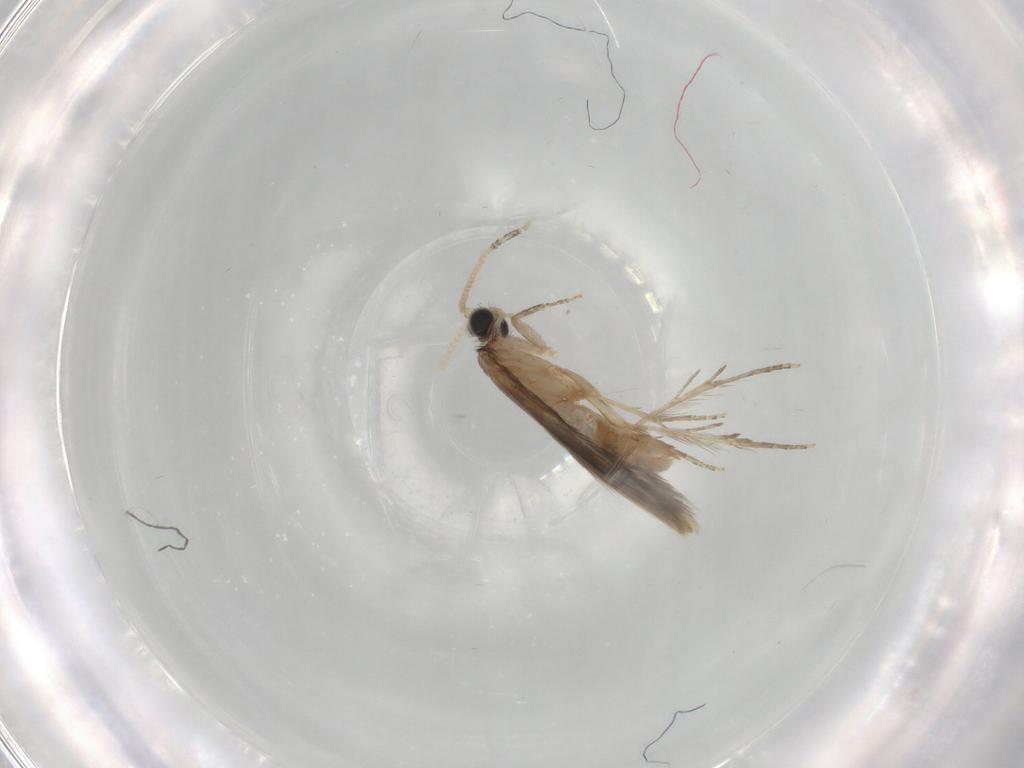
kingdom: Animalia
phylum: Arthropoda
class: Insecta
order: Trichoptera
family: Hydroptilidae
